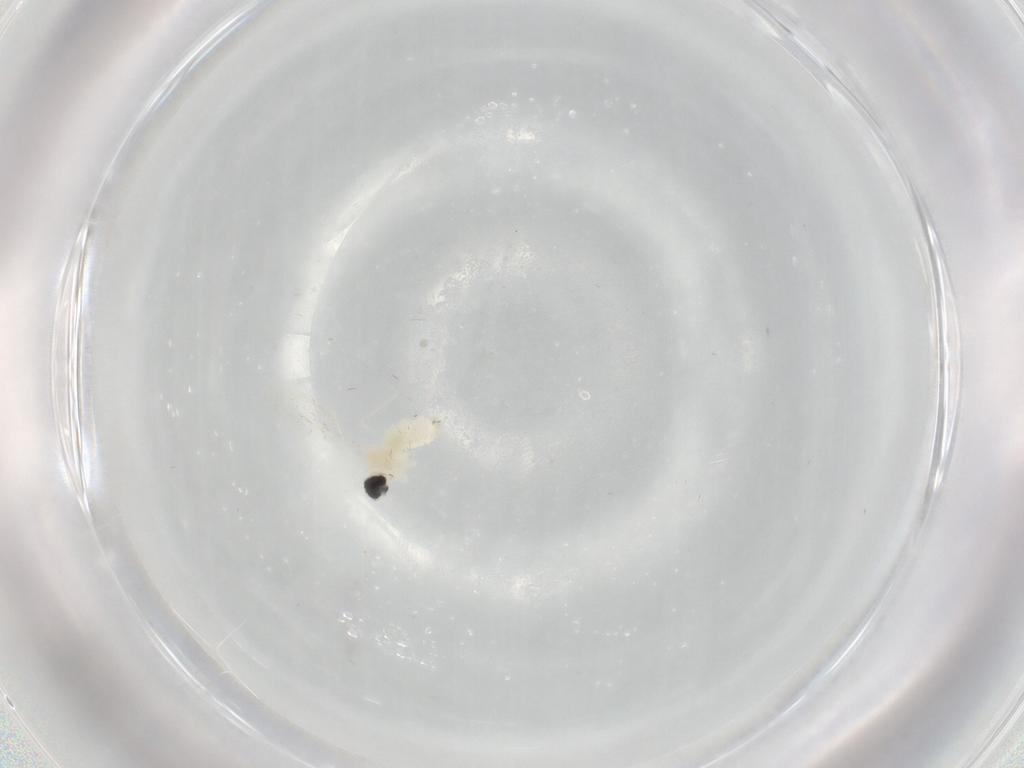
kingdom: Animalia
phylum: Arthropoda
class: Insecta
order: Diptera
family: Cecidomyiidae
